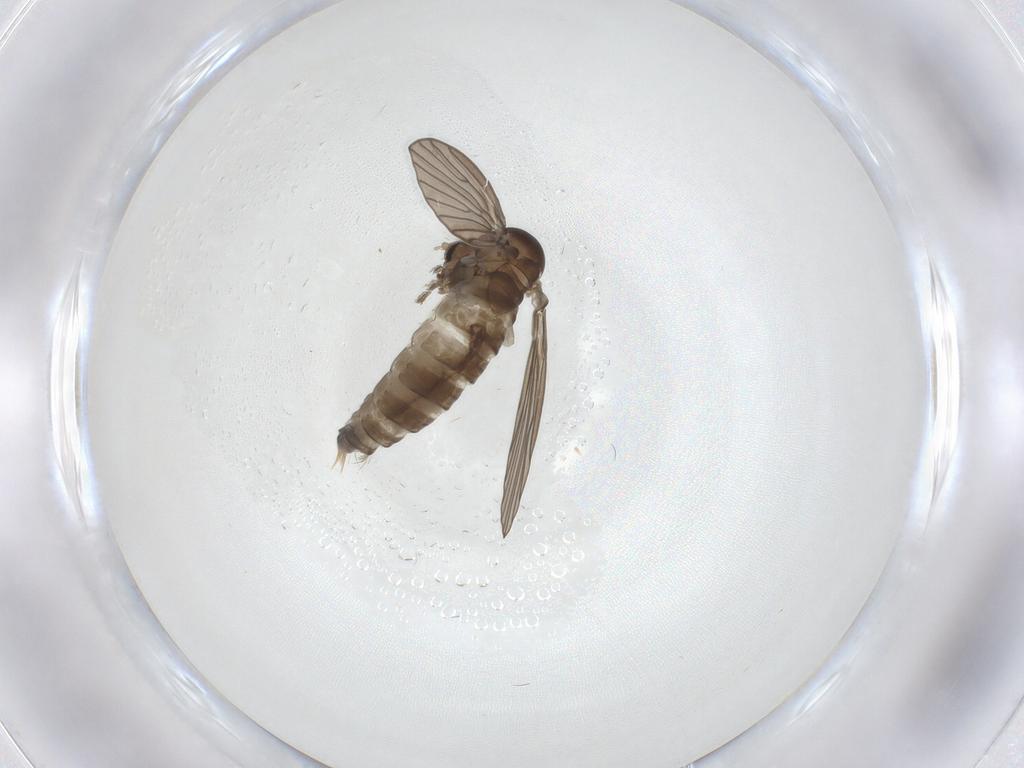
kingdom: Animalia
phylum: Arthropoda
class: Insecta
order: Diptera
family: Psychodidae
